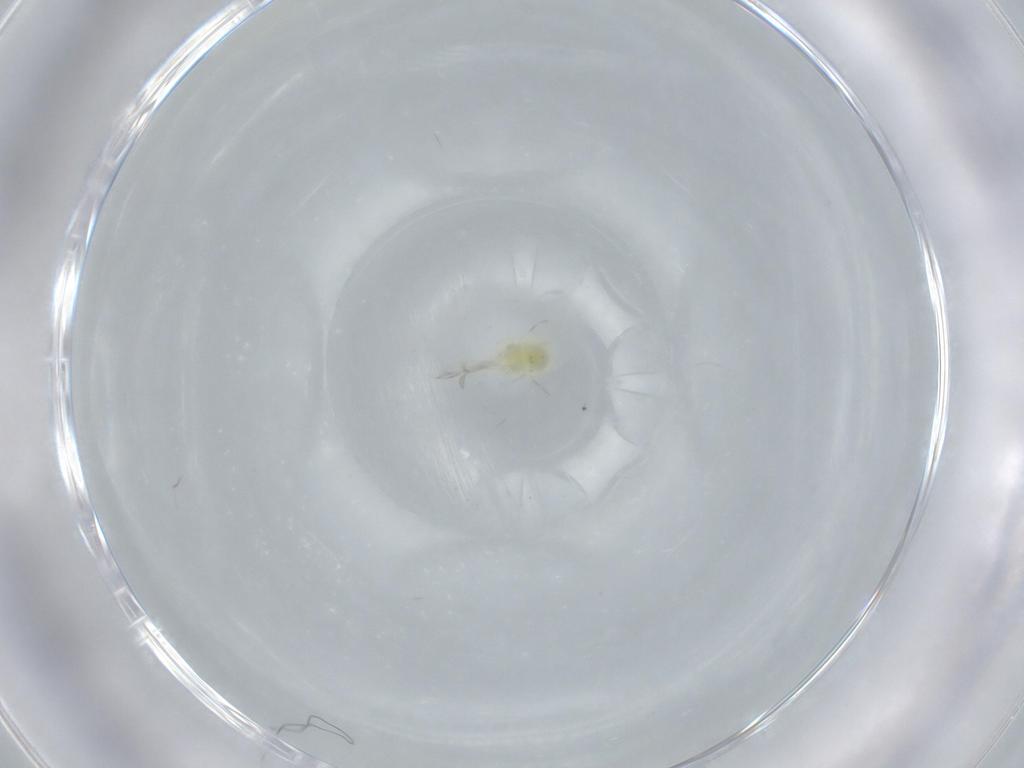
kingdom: Animalia
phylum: Arthropoda
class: Insecta
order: Hemiptera
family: Aleyrodidae
